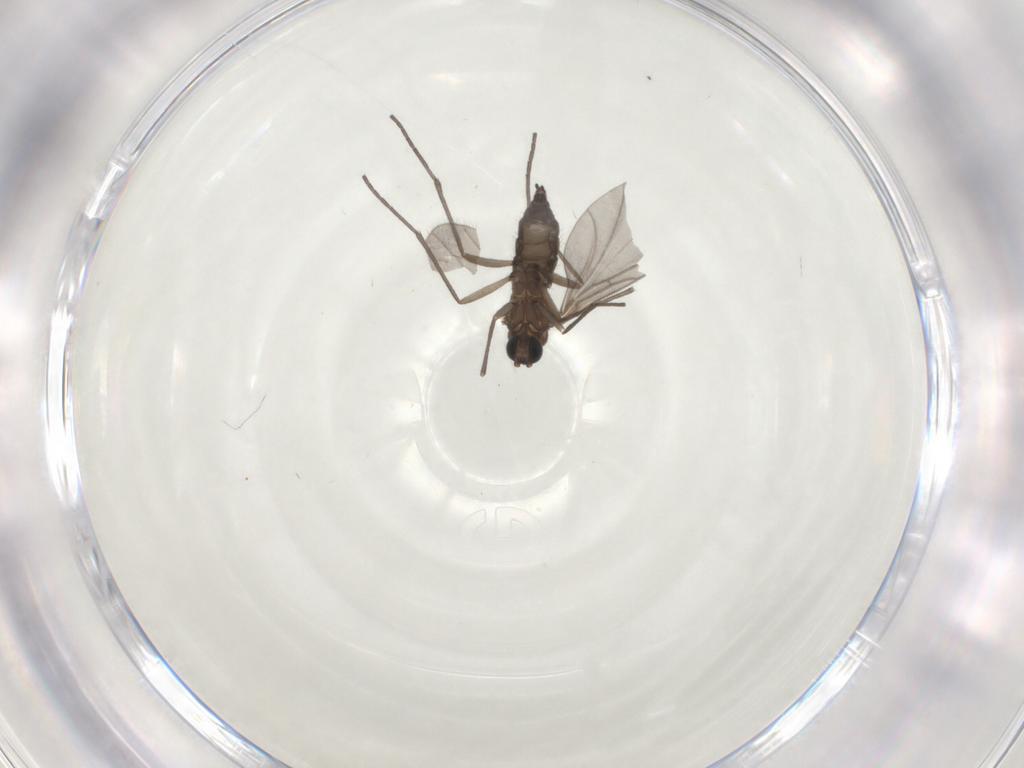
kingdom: Animalia
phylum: Arthropoda
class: Insecta
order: Diptera
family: Sciaridae
